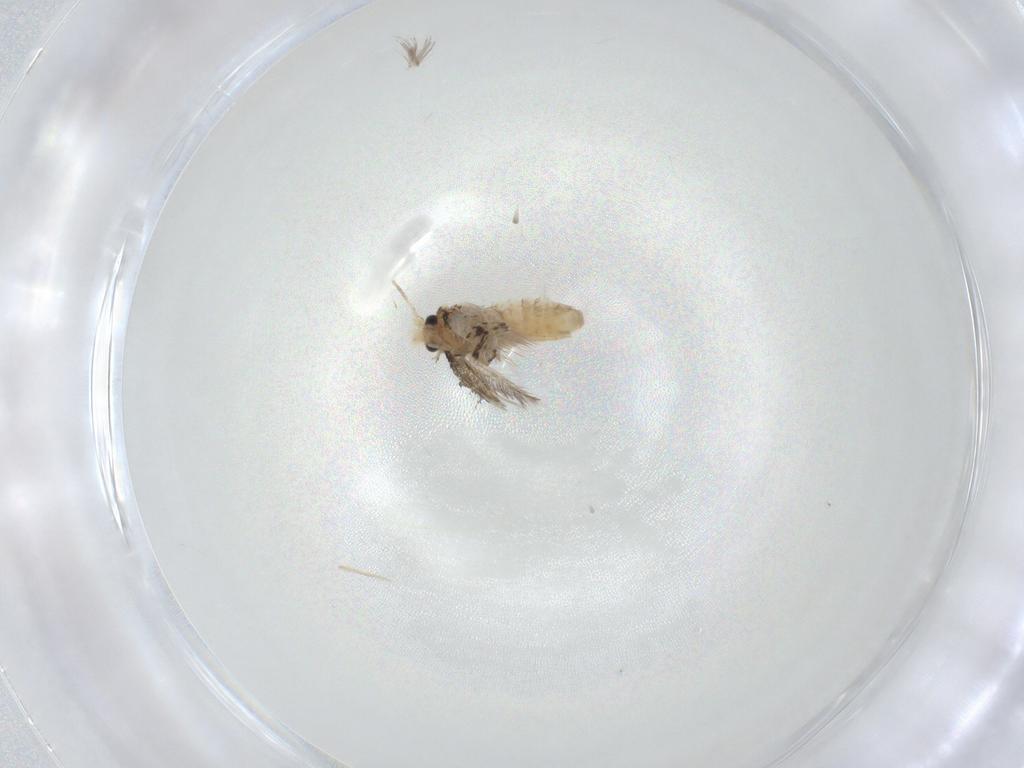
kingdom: Animalia
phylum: Arthropoda
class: Insecta
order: Lepidoptera
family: Nepticulidae
